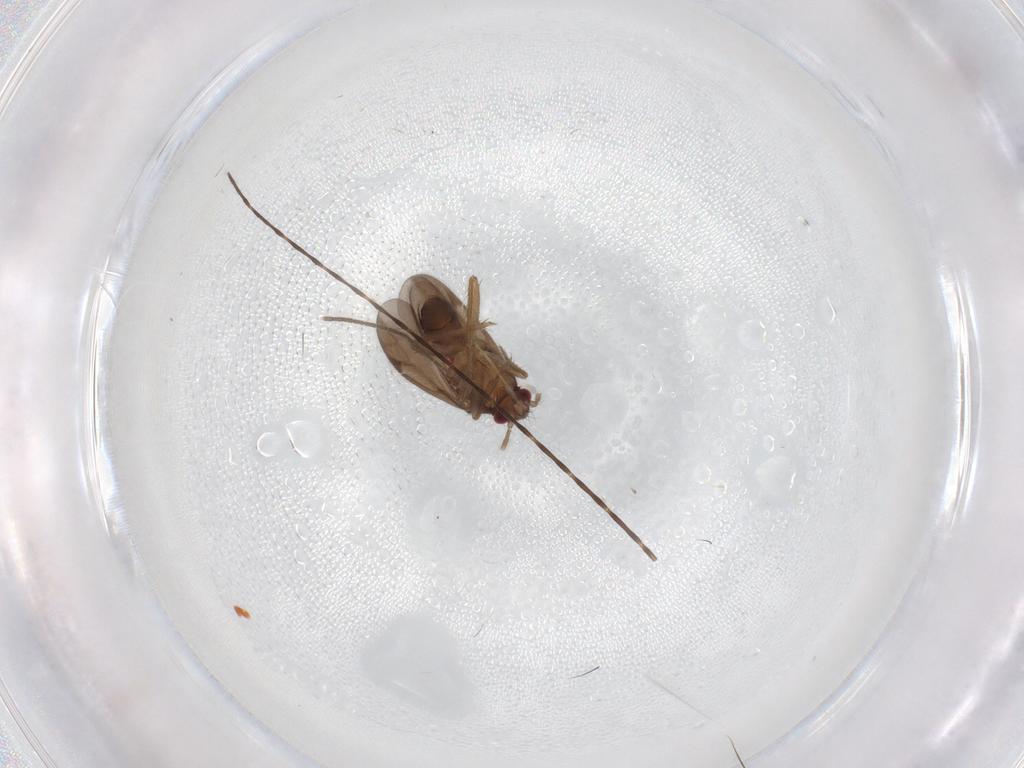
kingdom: Animalia
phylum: Arthropoda
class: Insecta
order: Hemiptera
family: Ceratocombidae
